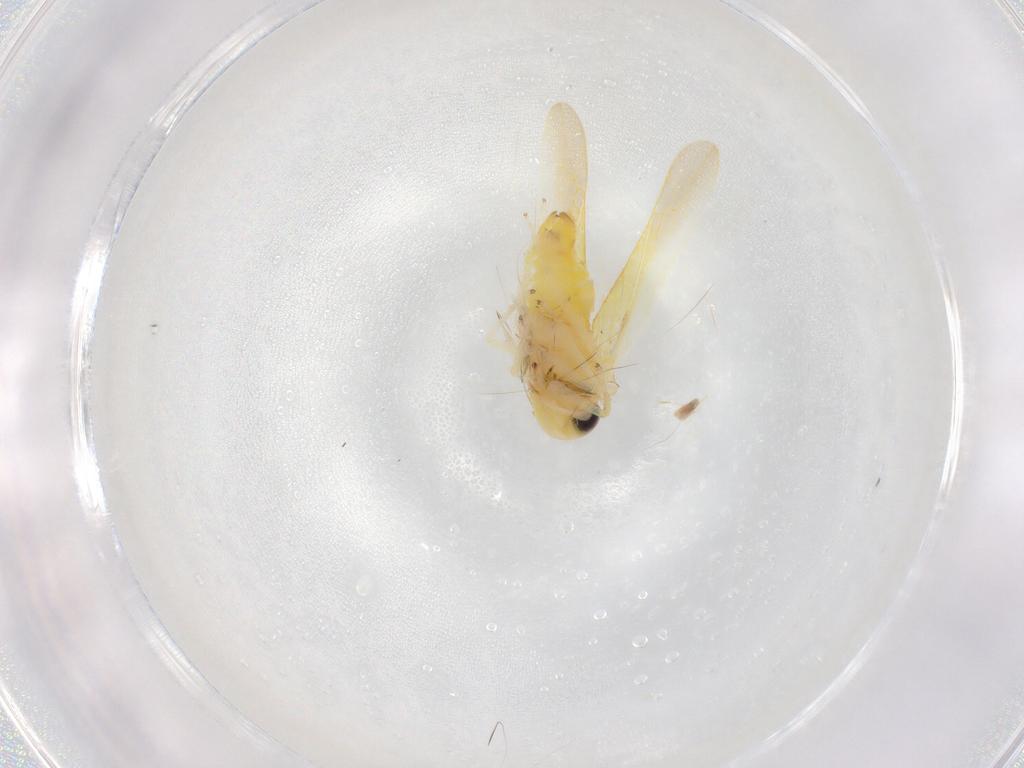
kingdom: Animalia
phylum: Arthropoda
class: Insecta
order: Hemiptera
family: Cicadellidae
